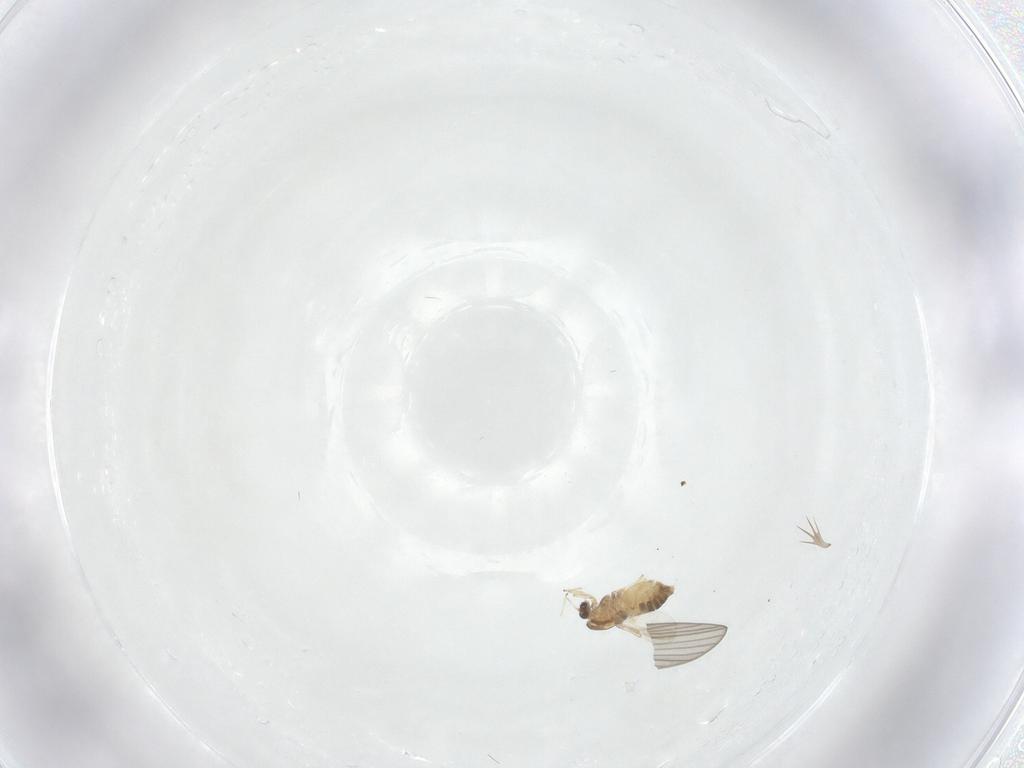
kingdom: Animalia
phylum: Arthropoda
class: Insecta
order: Diptera
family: Chironomidae
